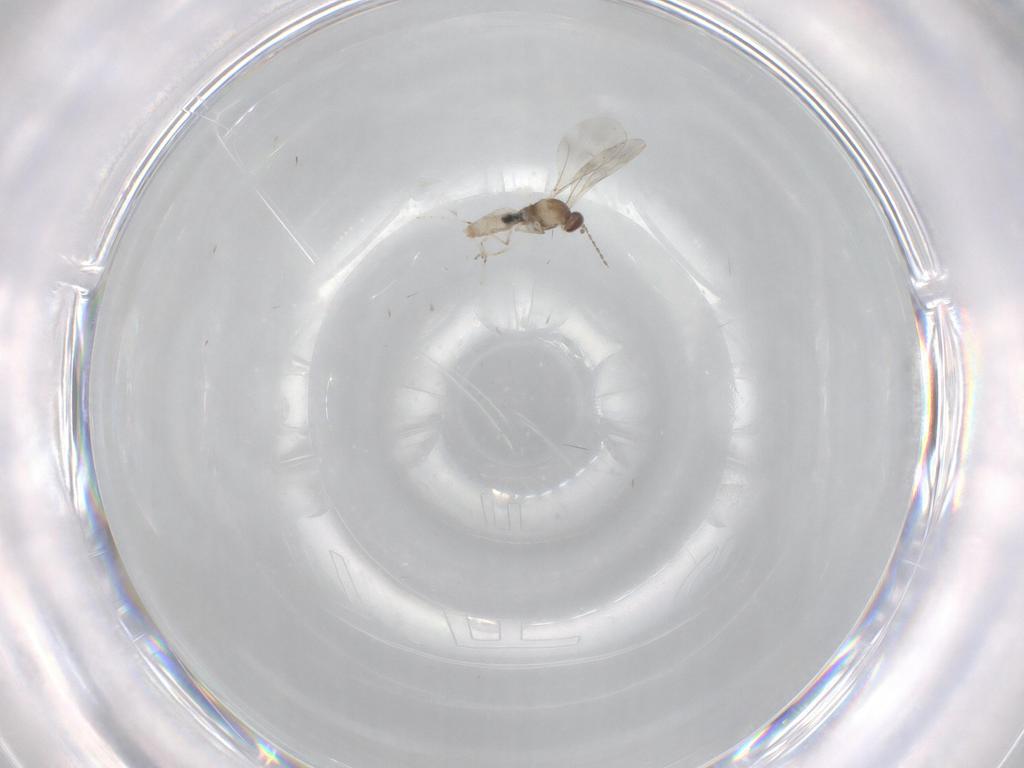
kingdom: Animalia
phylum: Arthropoda
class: Insecta
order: Diptera
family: Cecidomyiidae
